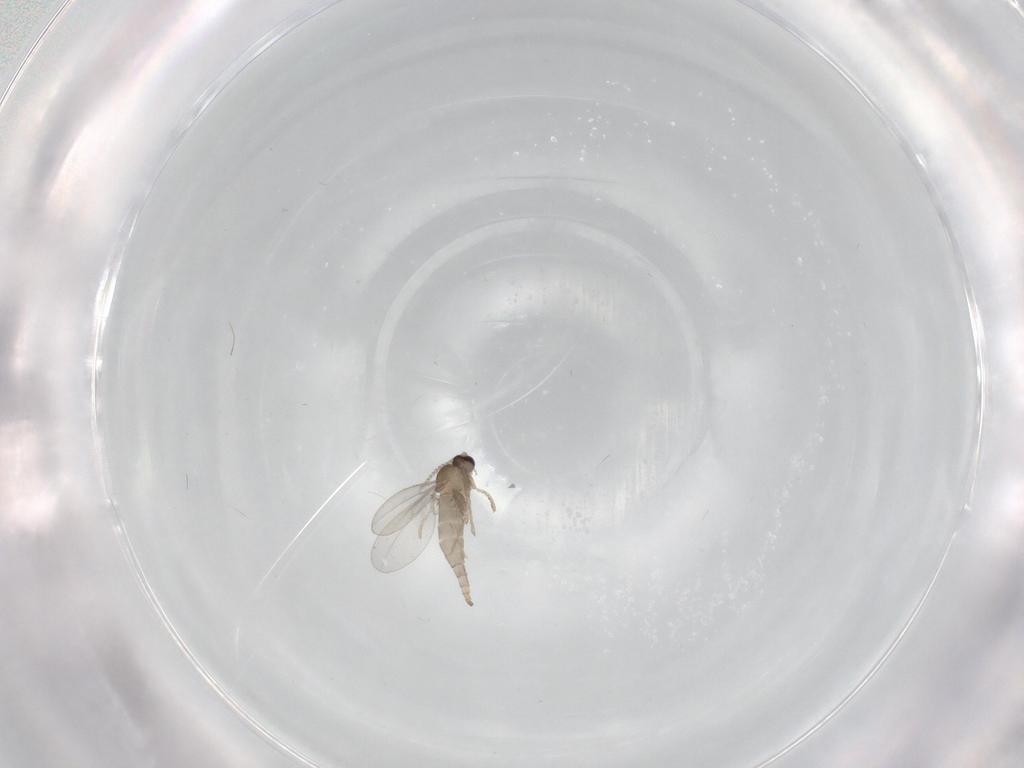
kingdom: Animalia
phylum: Arthropoda
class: Insecta
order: Diptera
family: Cecidomyiidae
